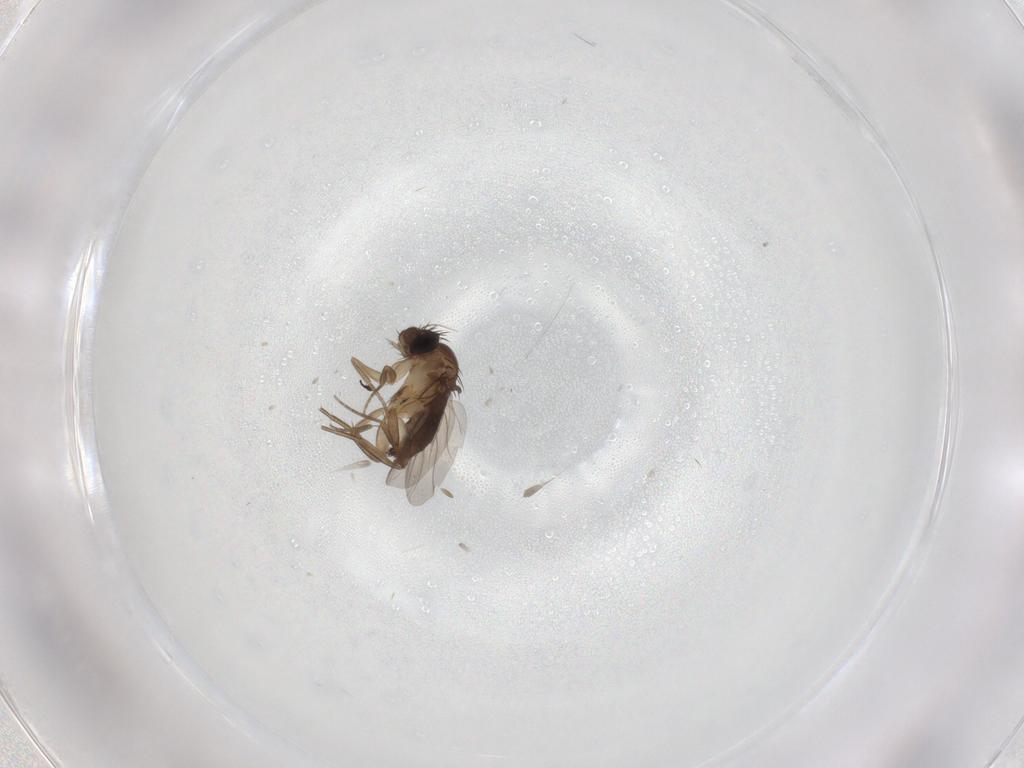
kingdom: Animalia
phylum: Arthropoda
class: Insecta
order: Diptera
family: Phoridae
